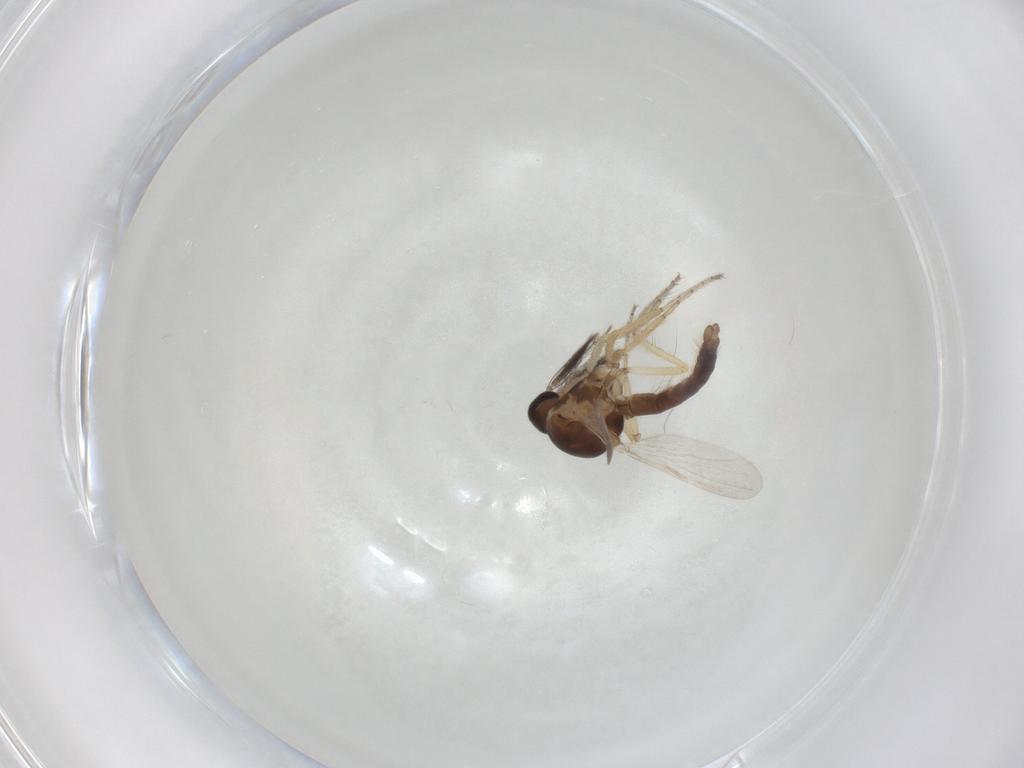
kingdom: Animalia
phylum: Arthropoda
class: Insecta
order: Diptera
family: Ceratopogonidae
